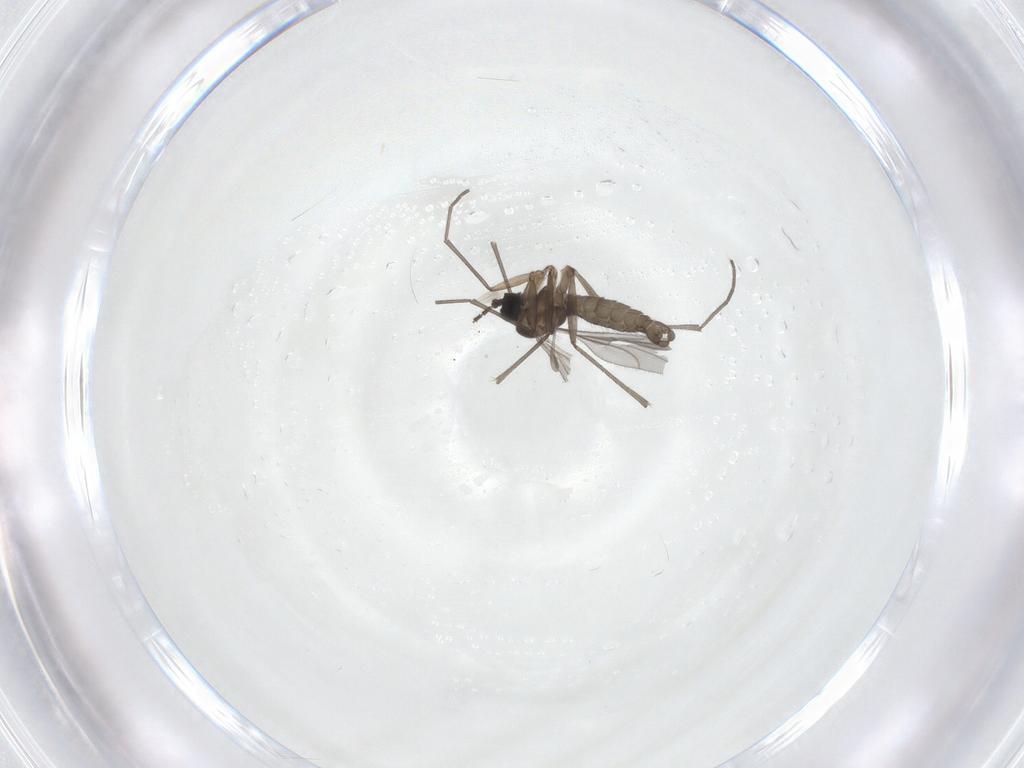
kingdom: Animalia
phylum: Arthropoda
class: Insecta
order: Diptera
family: Sciaridae
